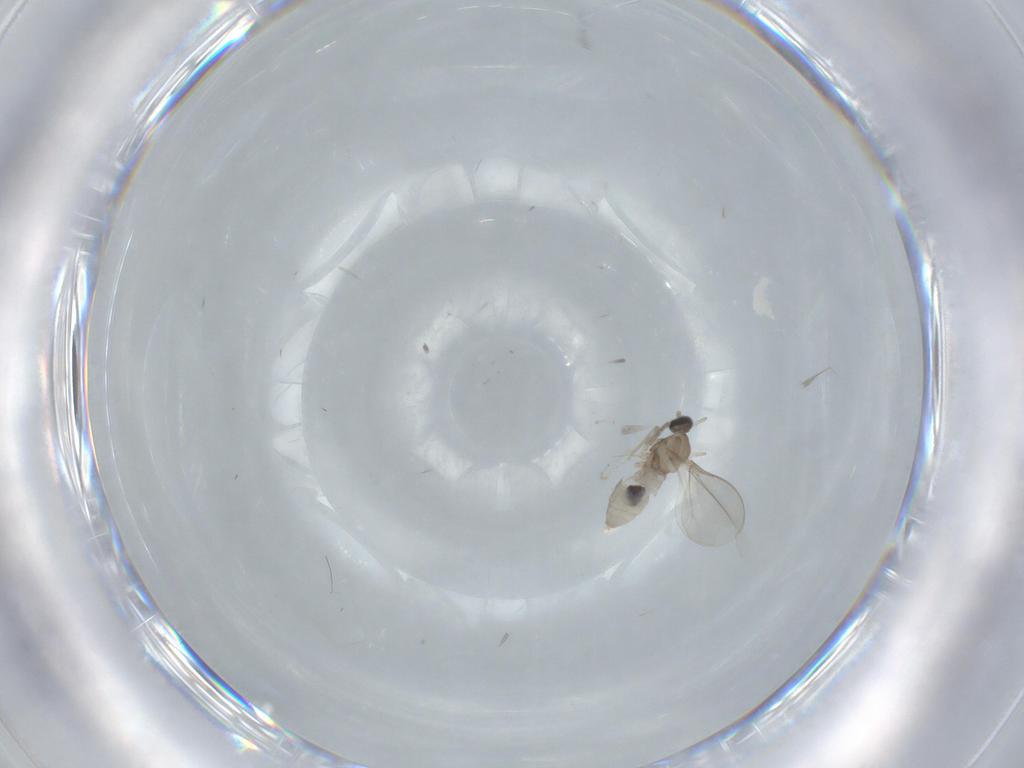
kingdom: Animalia
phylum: Arthropoda
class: Insecta
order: Diptera
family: Cecidomyiidae
